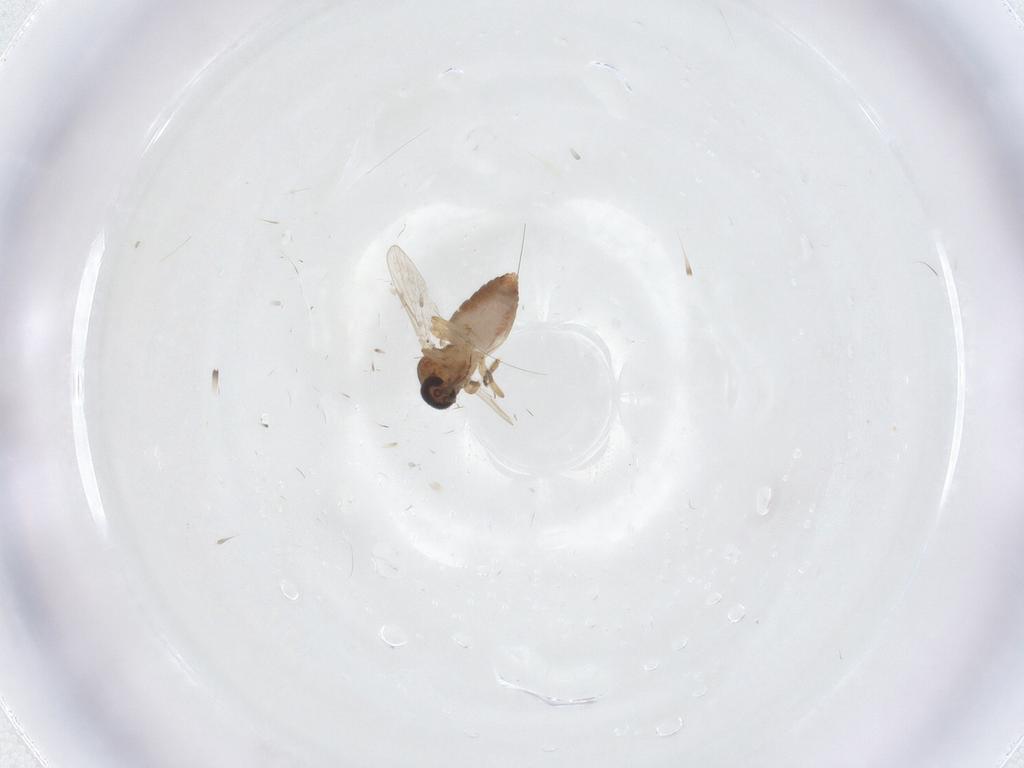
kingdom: Animalia
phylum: Arthropoda
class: Insecta
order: Diptera
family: Ceratopogonidae
